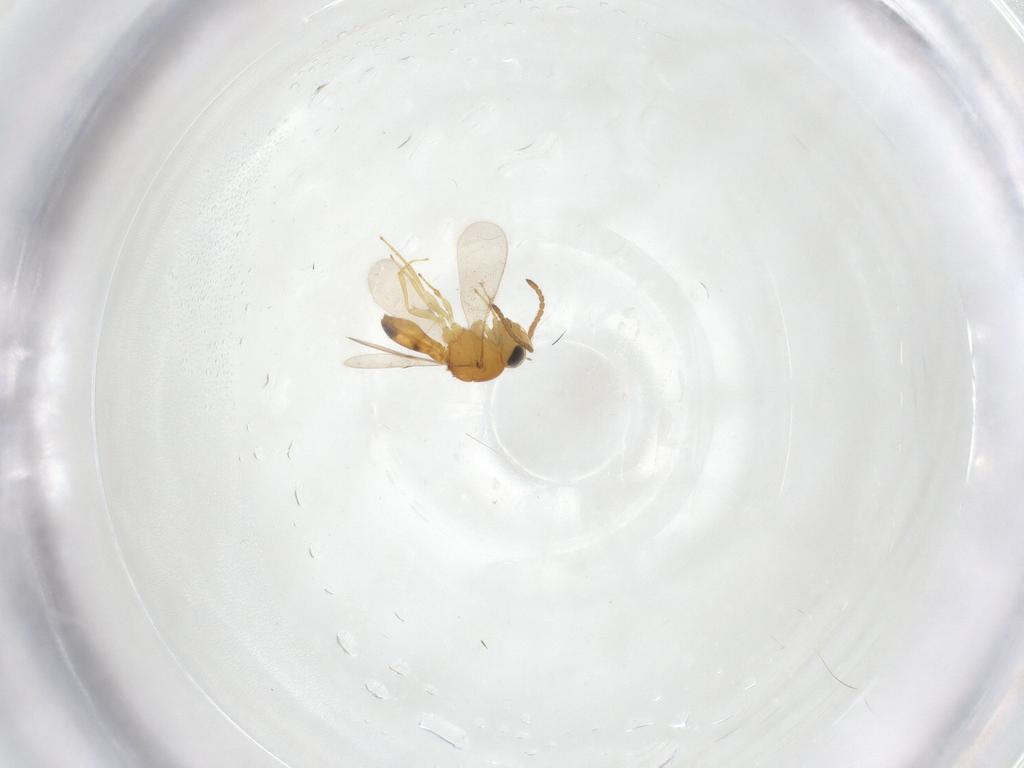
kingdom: Animalia
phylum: Arthropoda
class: Insecta
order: Hymenoptera
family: Scelionidae
